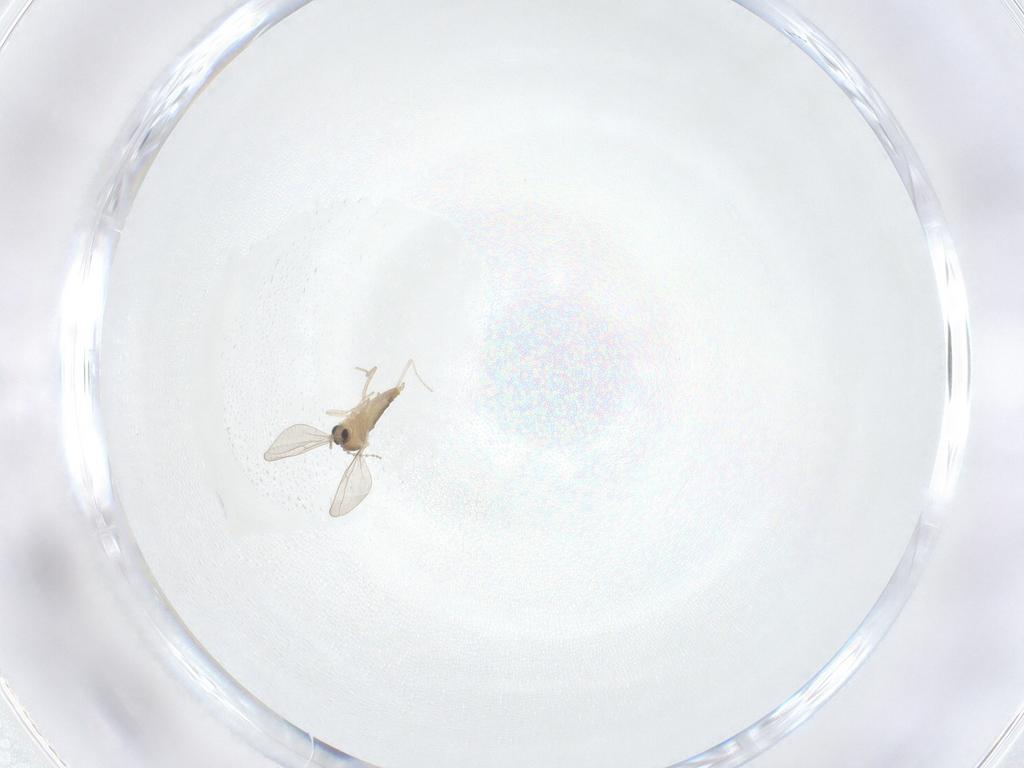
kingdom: Animalia
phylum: Arthropoda
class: Insecta
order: Diptera
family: Cecidomyiidae
